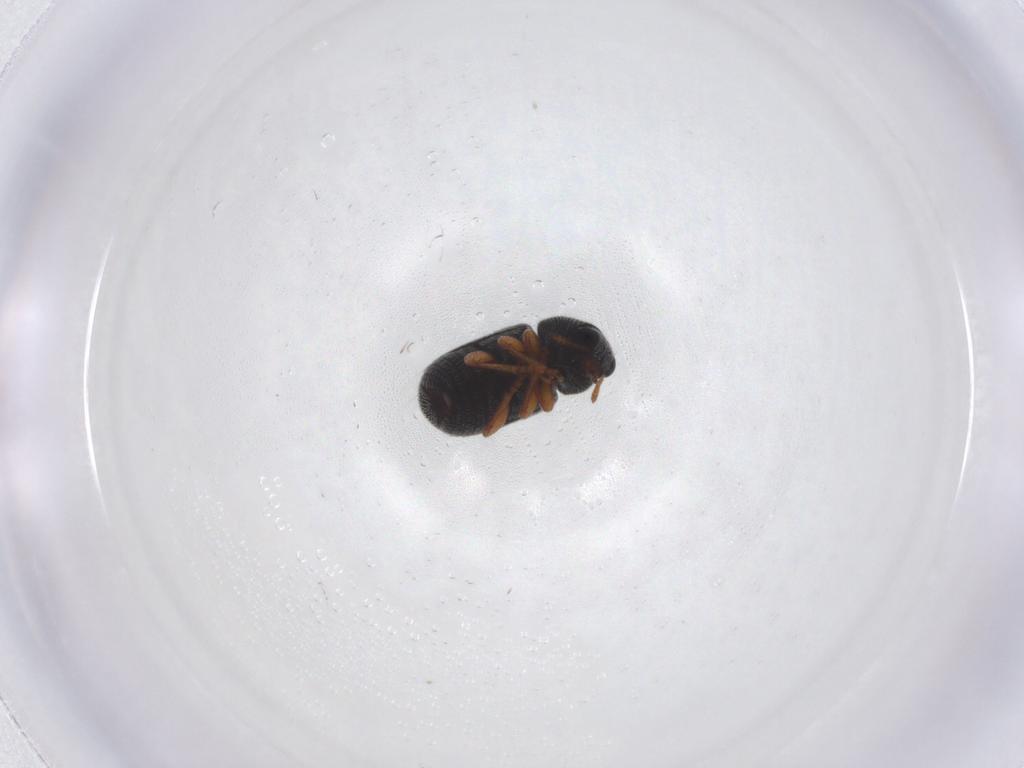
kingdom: Animalia
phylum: Arthropoda
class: Insecta
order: Coleoptera
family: Anthribidae
